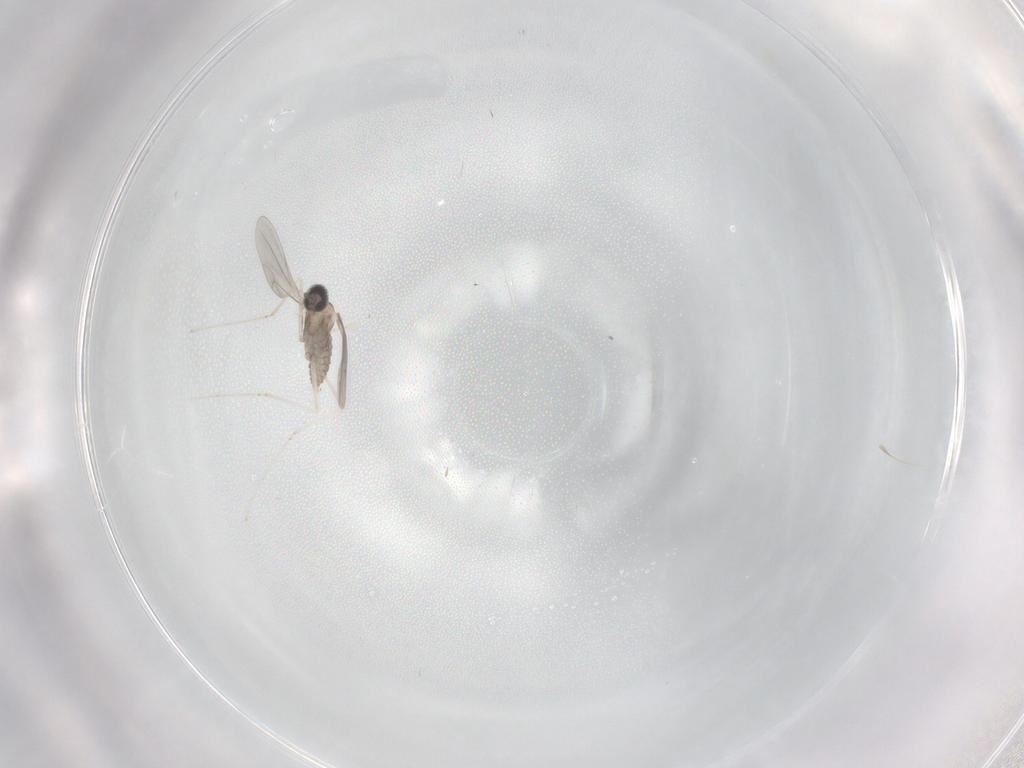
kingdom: Animalia
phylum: Arthropoda
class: Insecta
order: Diptera
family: Cecidomyiidae
